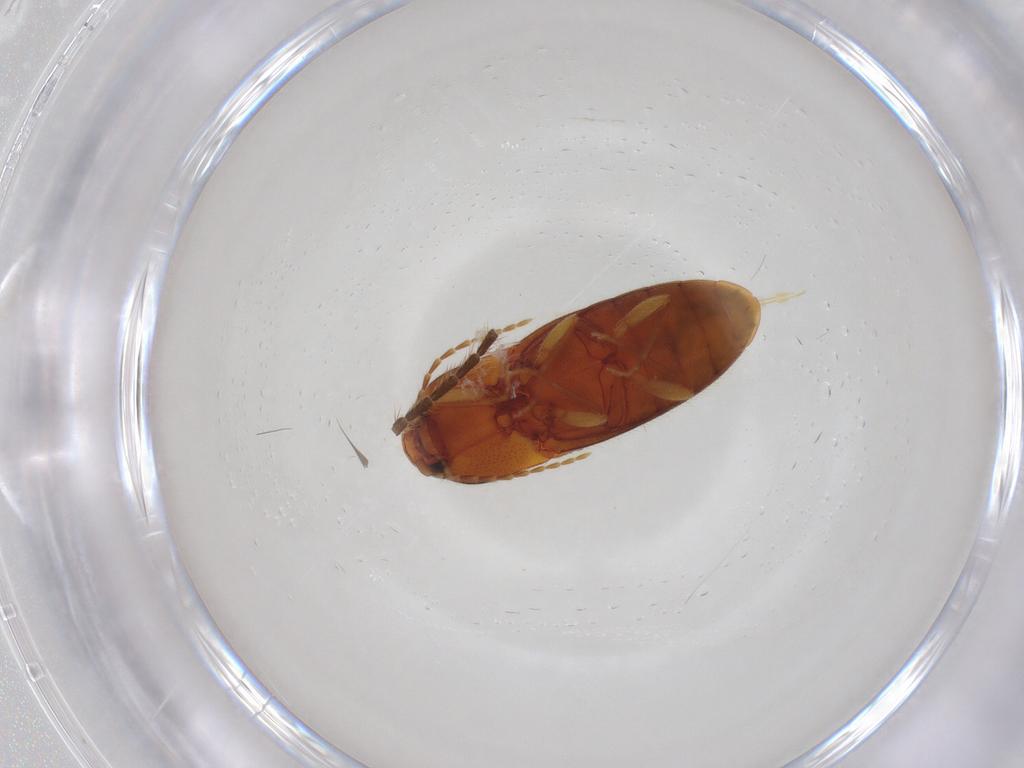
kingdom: Animalia
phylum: Arthropoda
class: Insecta
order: Coleoptera
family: Elateridae
